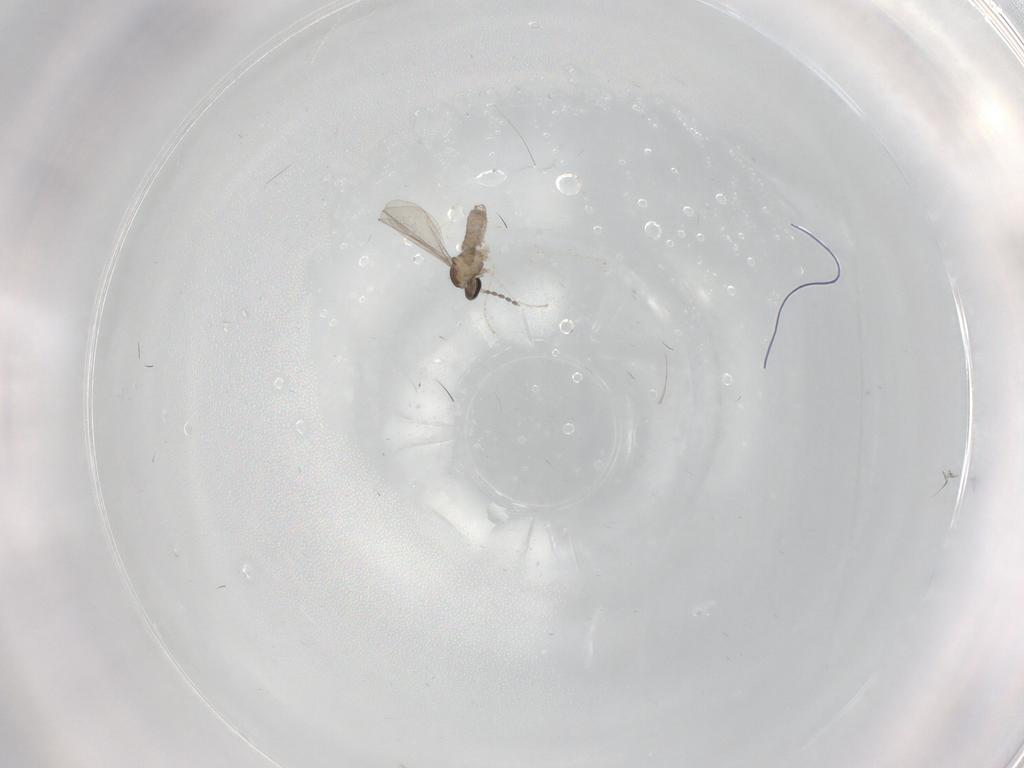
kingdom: Animalia
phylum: Arthropoda
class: Insecta
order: Diptera
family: Cecidomyiidae
